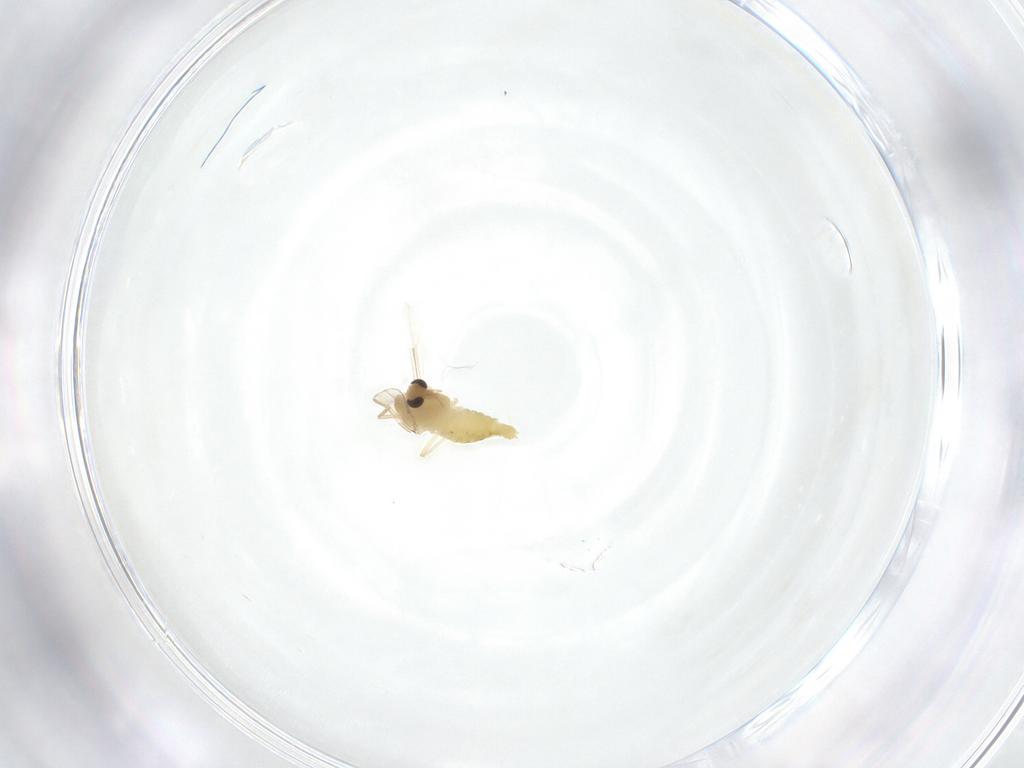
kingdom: Animalia
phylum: Arthropoda
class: Insecta
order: Diptera
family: Chironomidae
